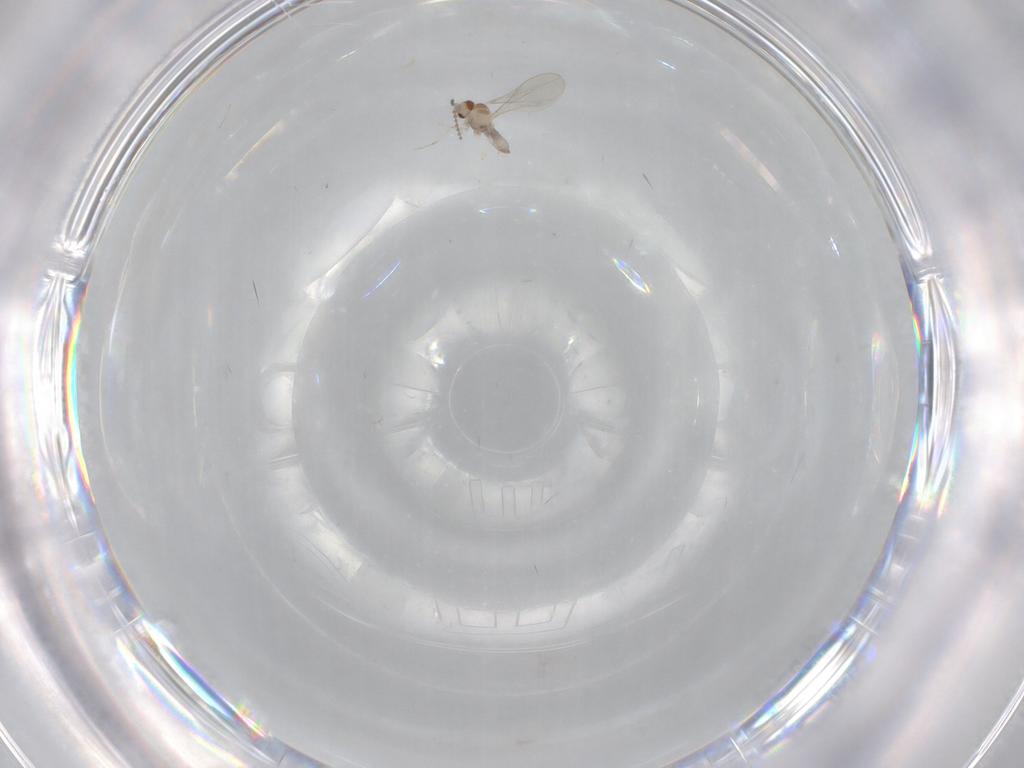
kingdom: Animalia
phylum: Arthropoda
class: Insecta
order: Diptera
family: Cecidomyiidae
